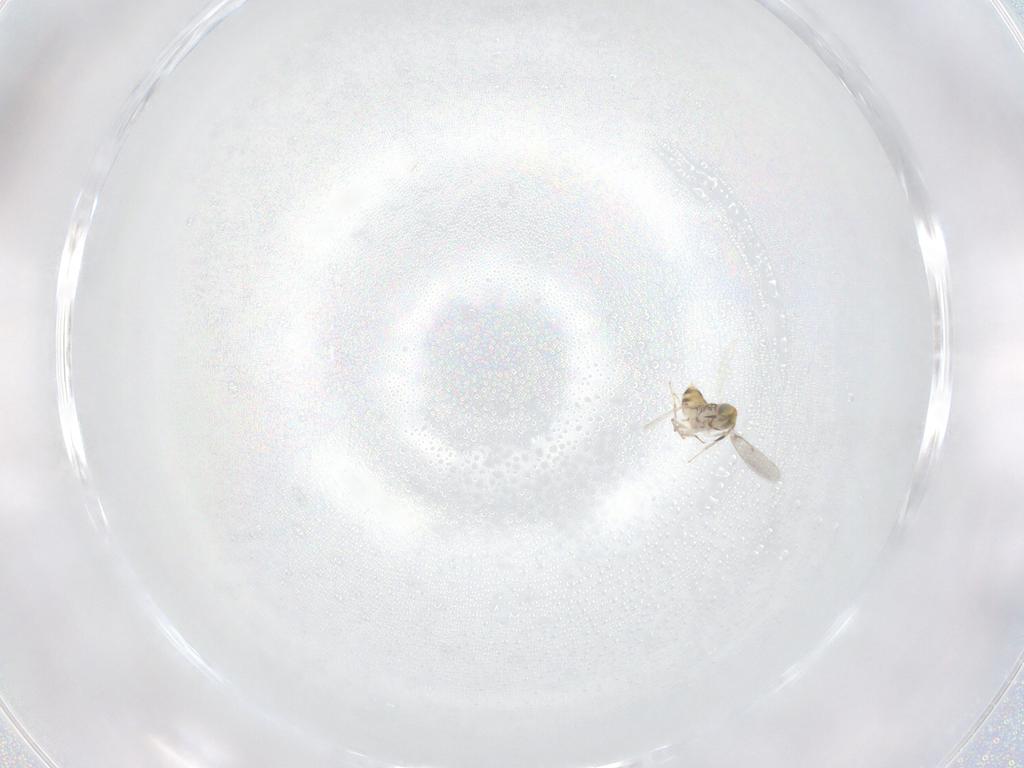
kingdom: Animalia
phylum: Arthropoda
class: Insecta
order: Hymenoptera
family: Aphelinidae
